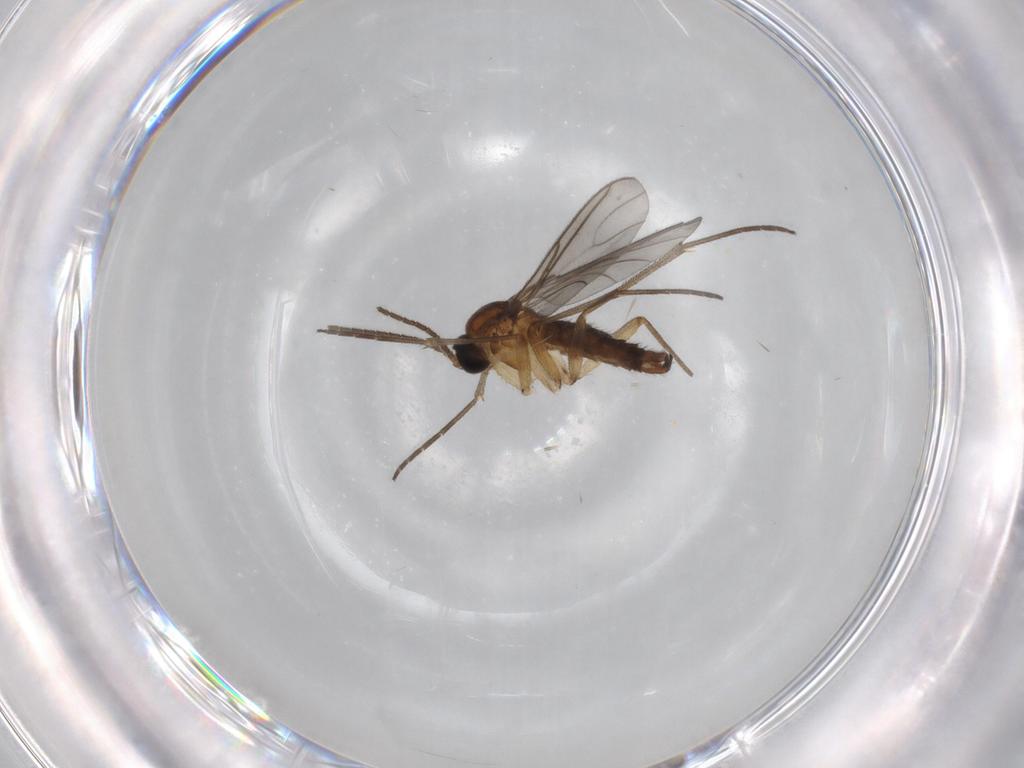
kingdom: Animalia
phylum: Arthropoda
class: Insecta
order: Diptera
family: Sciaridae
